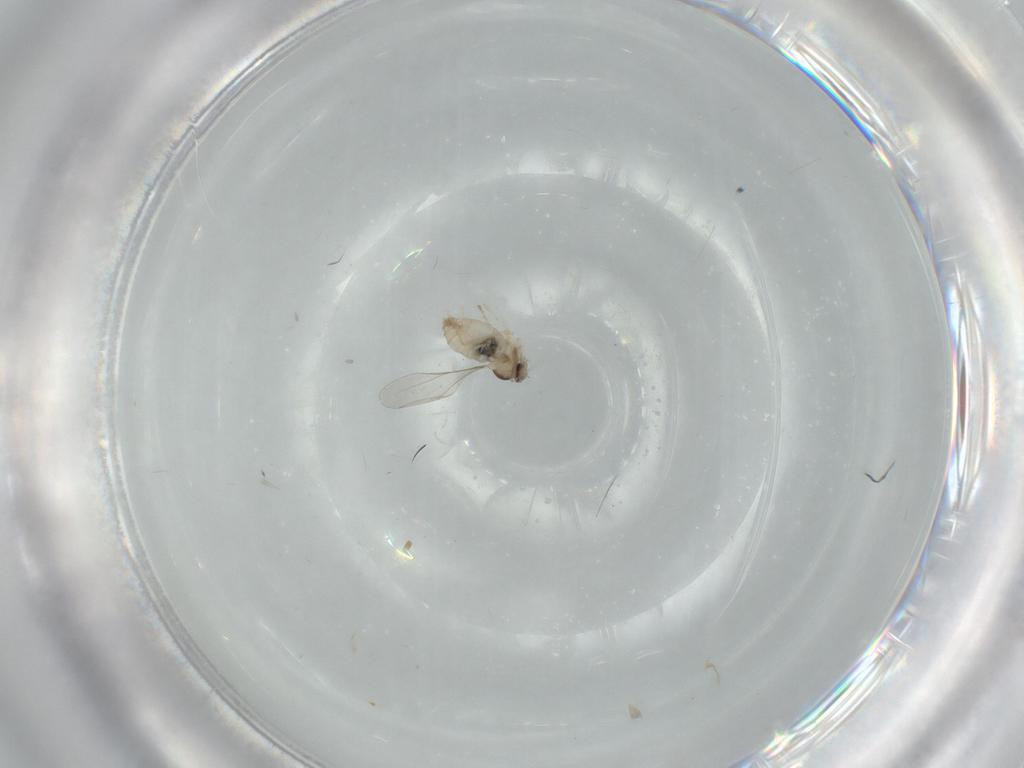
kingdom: Animalia
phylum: Arthropoda
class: Insecta
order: Diptera
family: Cecidomyiidae
